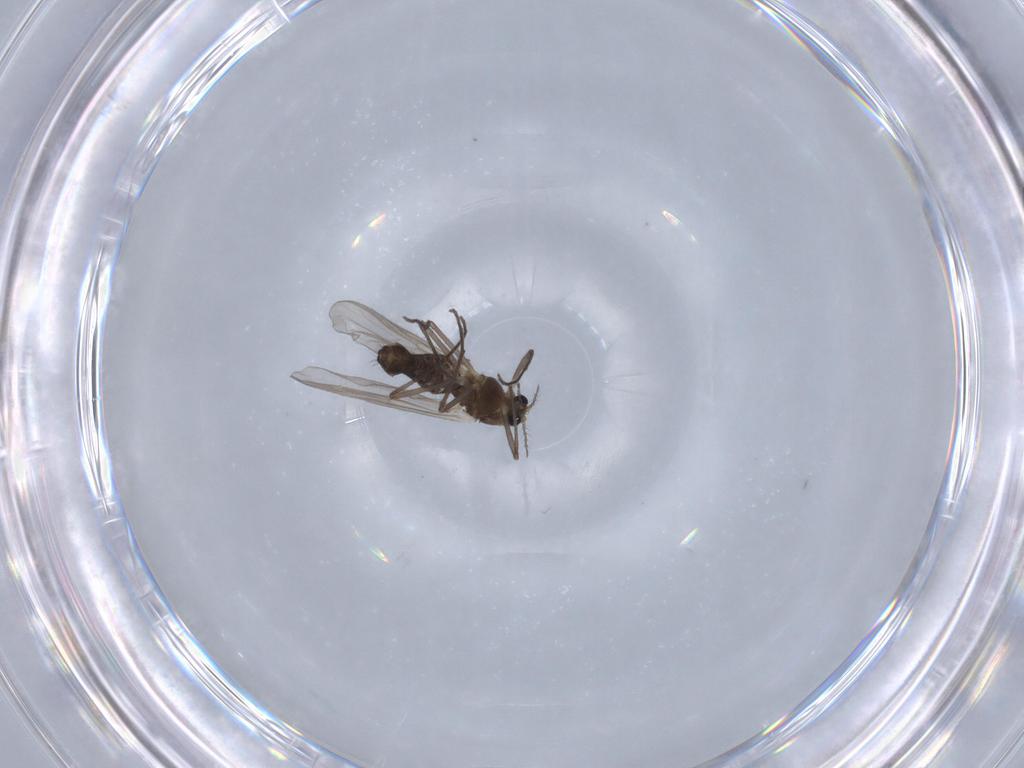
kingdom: Animalia
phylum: Arthropoda
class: Insecta
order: Diptera
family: Chironomidae
